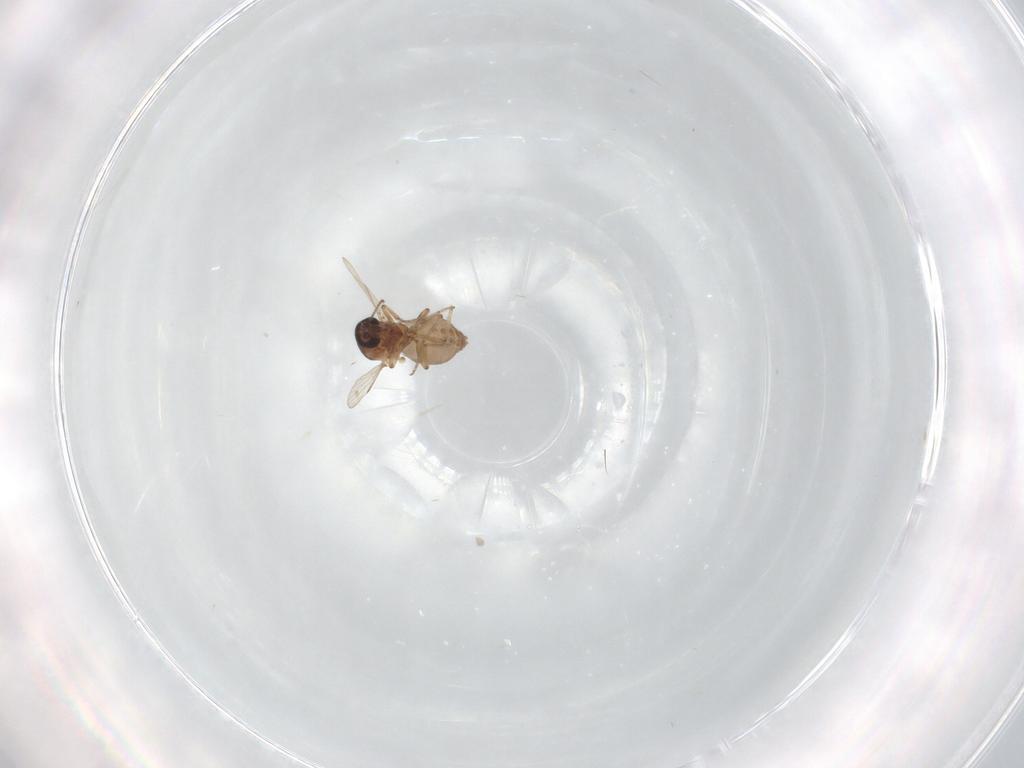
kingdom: Animalia
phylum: Arthropoda
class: Insecta
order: Diptera
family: Ceratopogonidae
